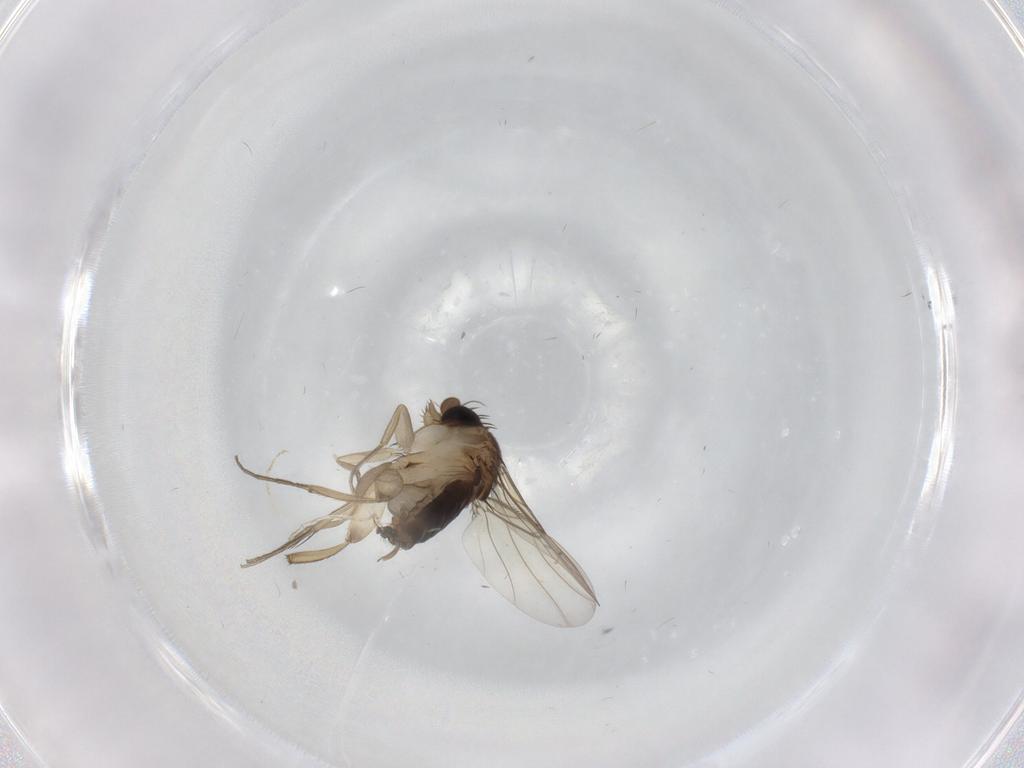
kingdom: Animalia
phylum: Arthropoda
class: Insecta
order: Diptera
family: Phoridae
